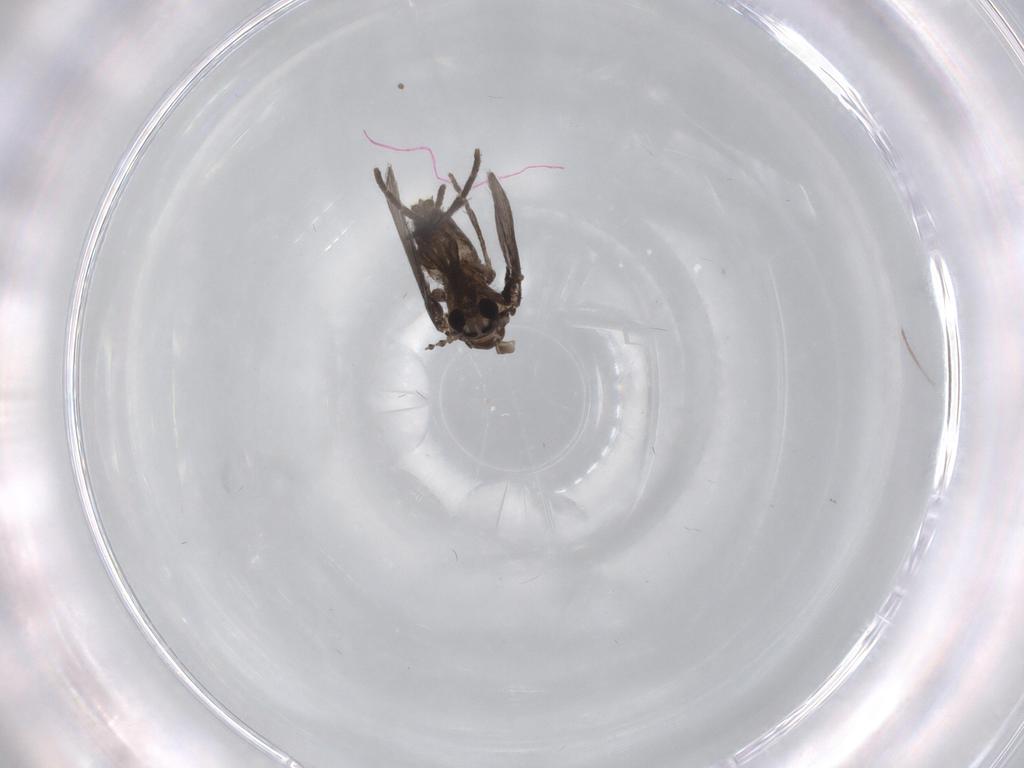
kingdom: Animalia
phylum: Arthropoda
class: Insecta
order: Diptera
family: Psychodidae
